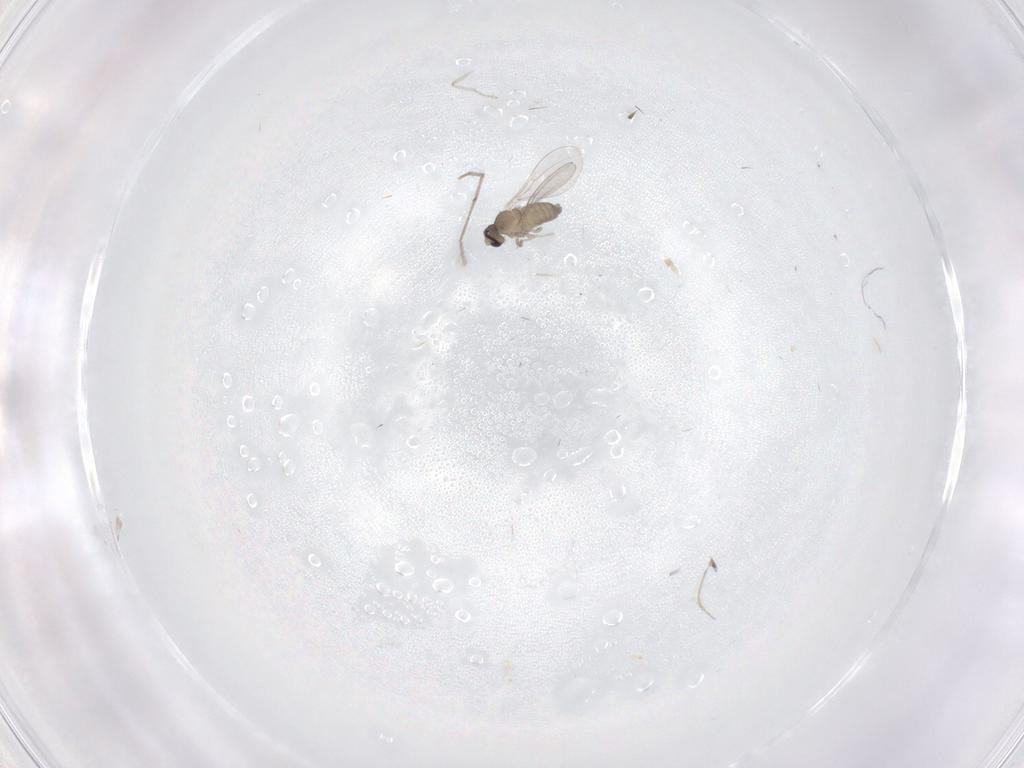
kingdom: Animalia
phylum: Arthropoda
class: Insecta
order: Diptera
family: Cecidomyiidae
